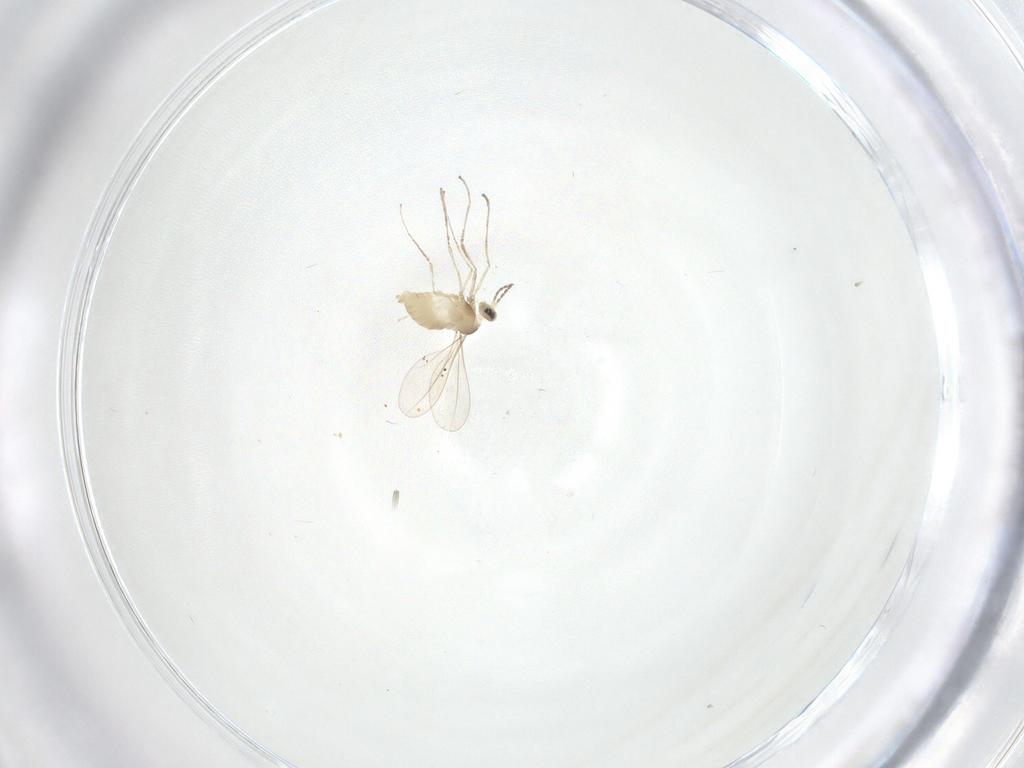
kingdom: Animalia
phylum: Arthropoda
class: Insecta
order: Diptera
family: Cecidomyiidae
